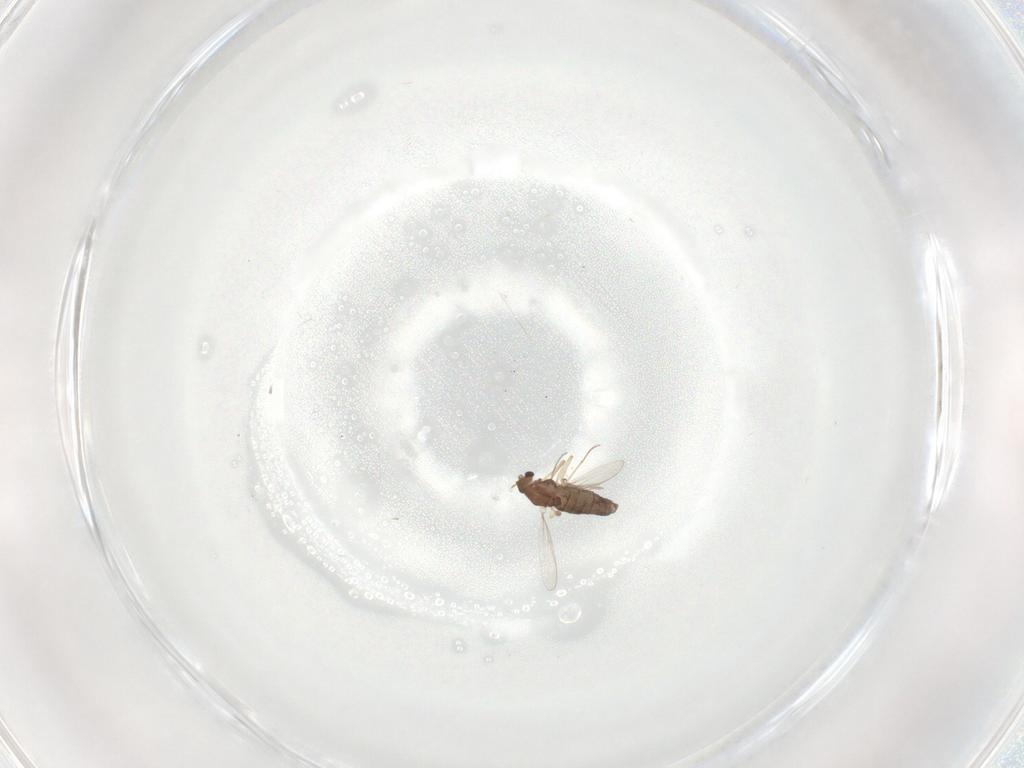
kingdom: Animalia
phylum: Arthropoda
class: Insecta
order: Diptera
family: Chironomidae
